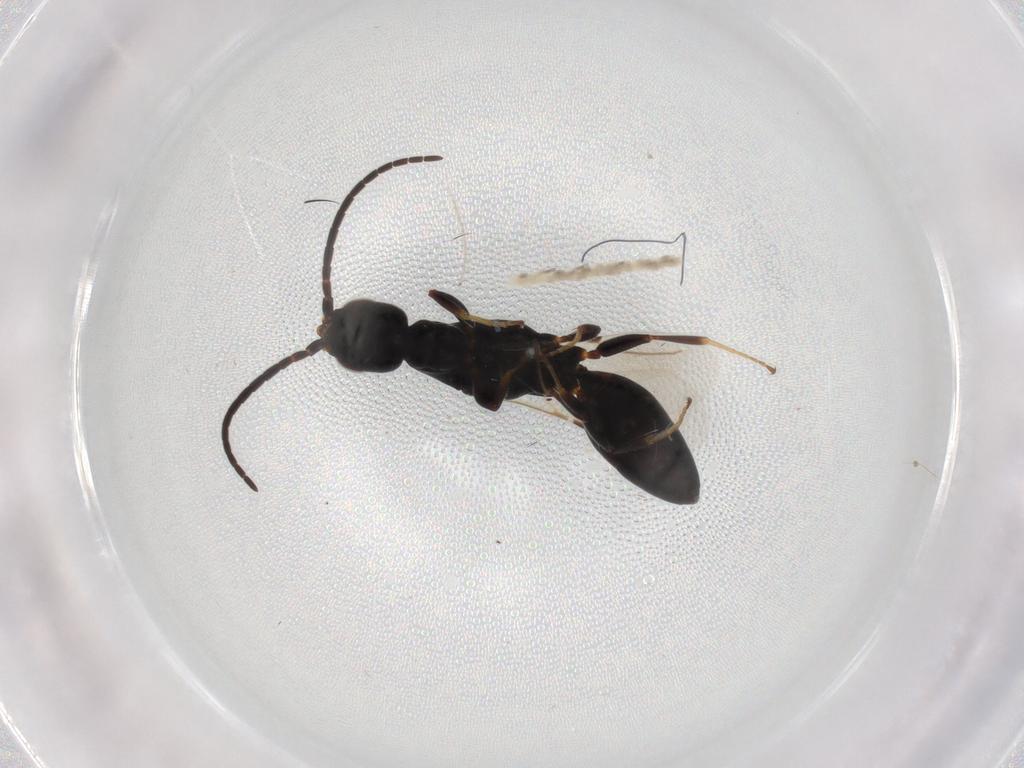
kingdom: Animalia
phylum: Arthropoda
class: Insecta
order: Hymenoptera
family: Bethylidae
